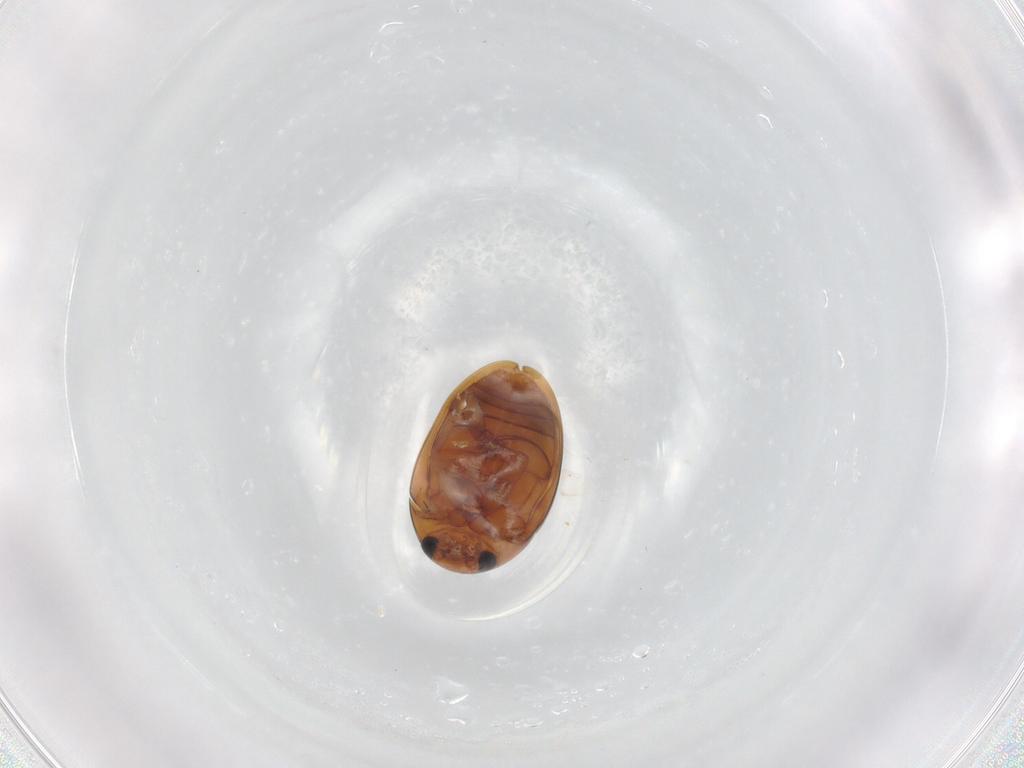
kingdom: Animalia
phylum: Arthropoda
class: Insecta
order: Coleoptera
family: Phalacridae
